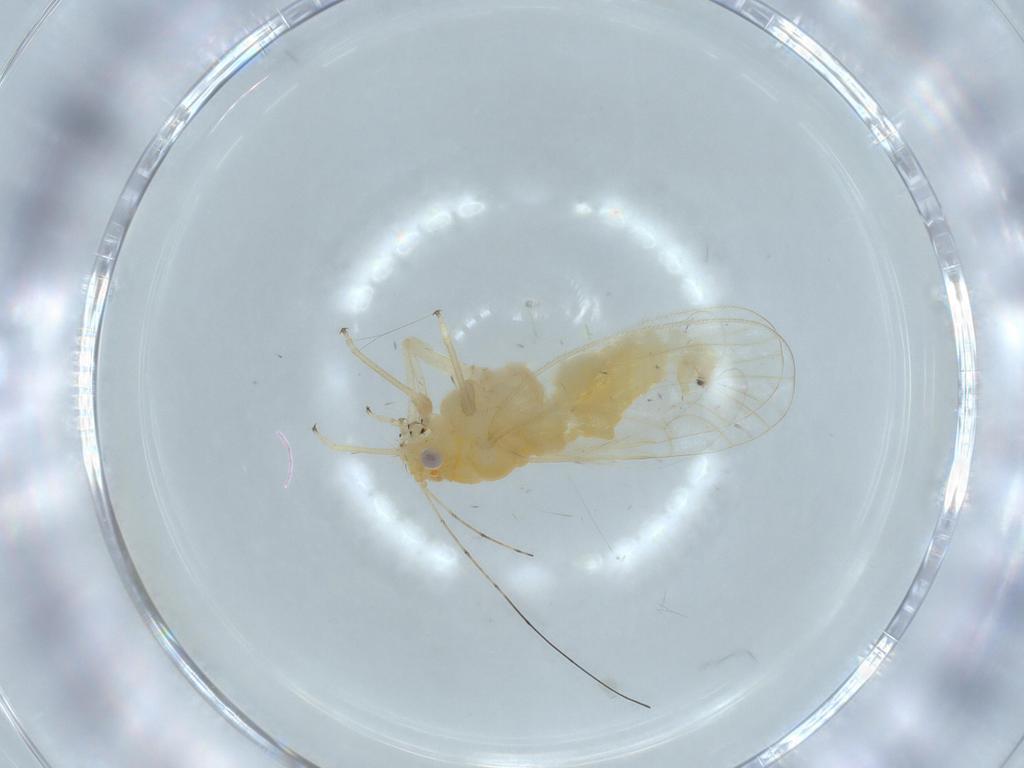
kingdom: Animalia
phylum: Arthropoda
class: Insecta
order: Hemiptera
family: Psyllidae
